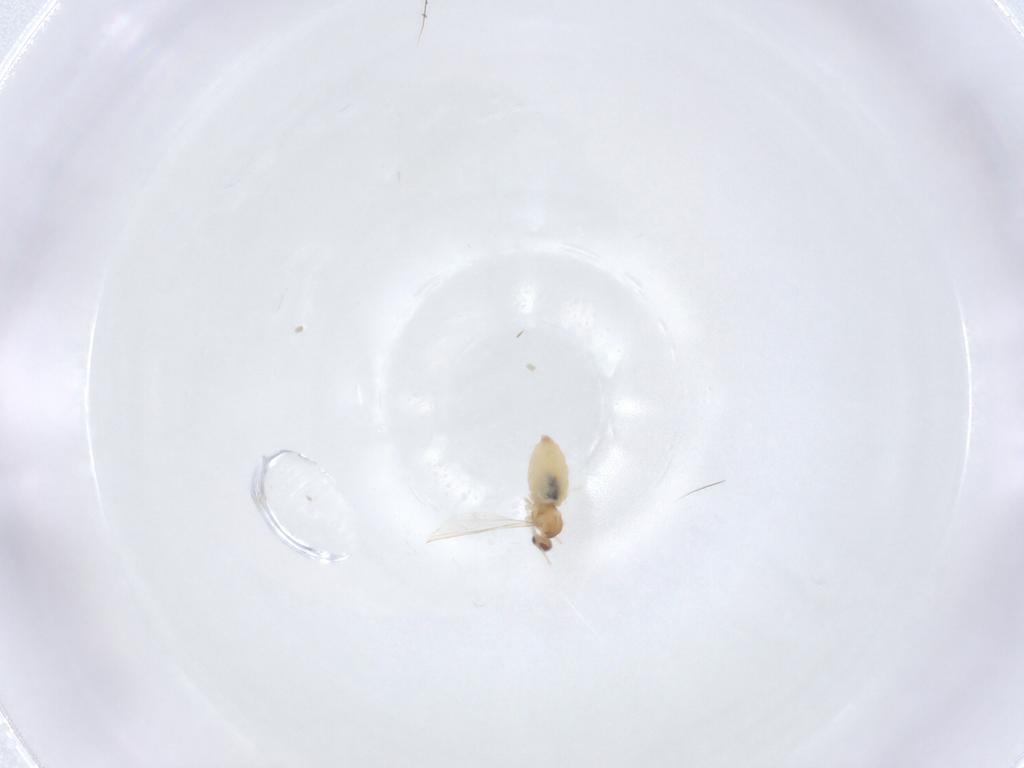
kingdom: Animalia
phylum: Arthropoda
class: Insecta
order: Diptera
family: Cecidomyiidae
